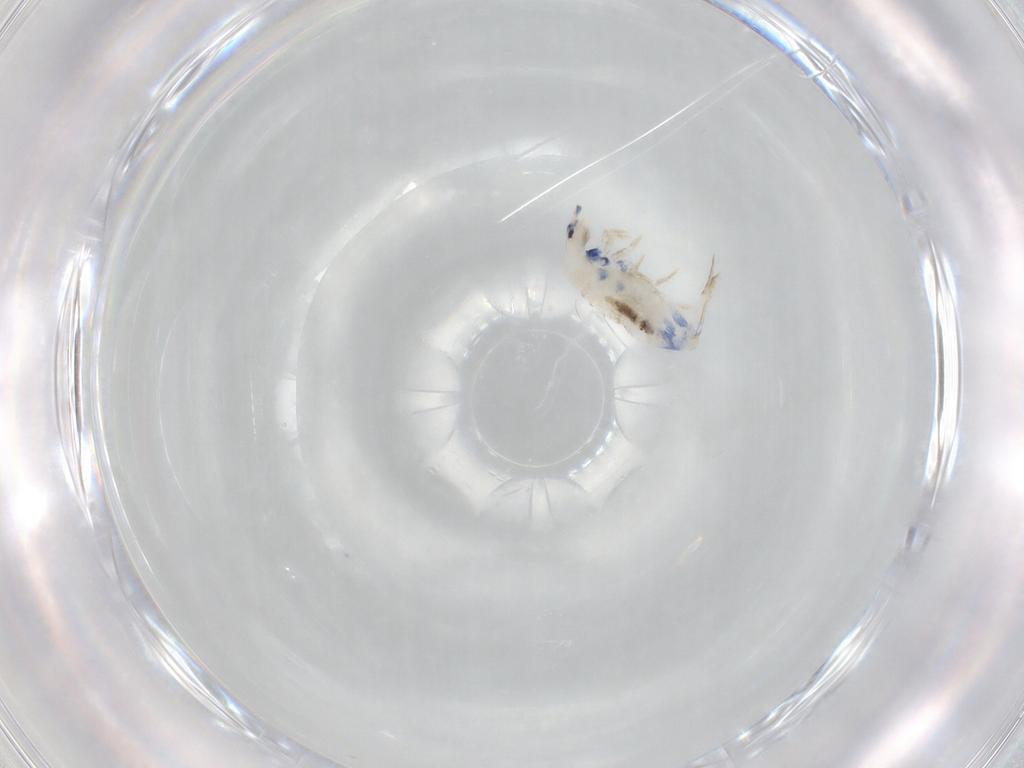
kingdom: Animalia
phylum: Arthropoda
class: Collembola
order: Entomobryomorpha
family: Entomobryidae
